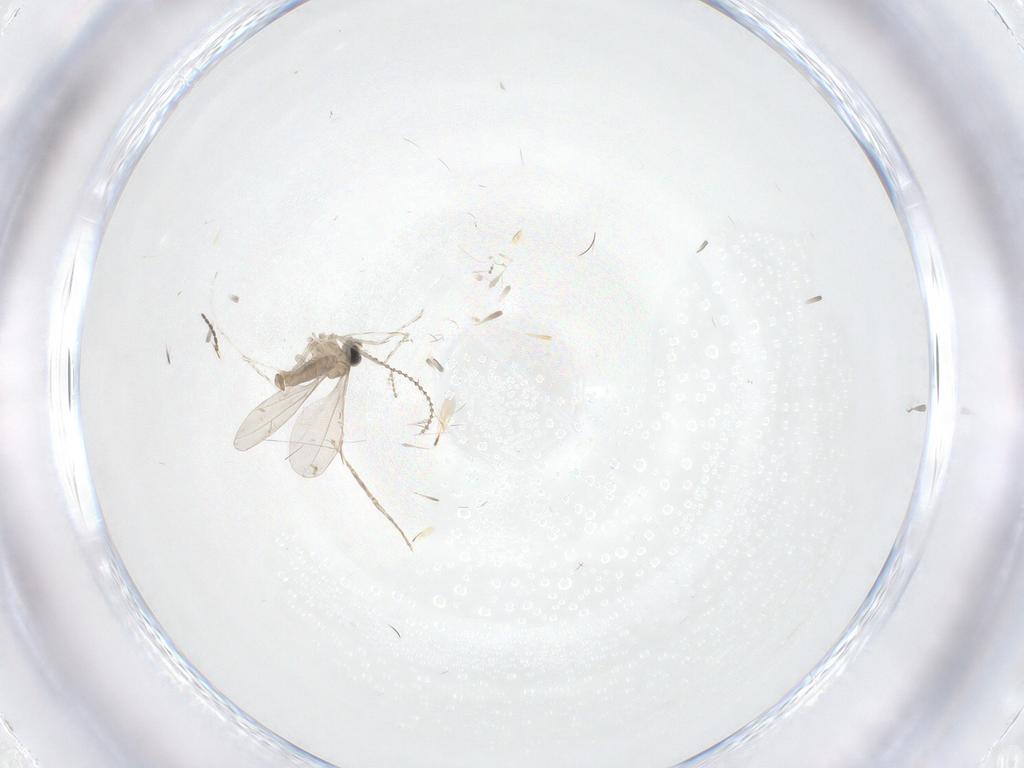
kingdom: Animalia
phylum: Arthropoda
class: Insecta
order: Diptera
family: Cecidomyiidae
